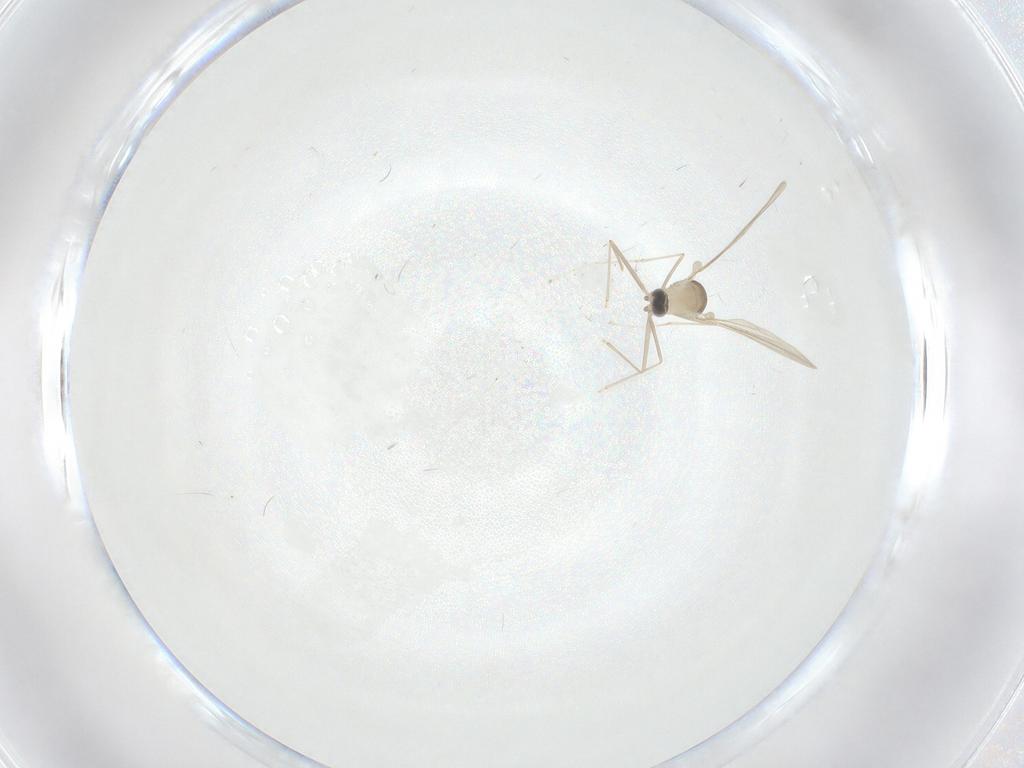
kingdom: Animalia
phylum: Arthropoda
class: Insecta
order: Diptera
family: Cecidomyiidae
